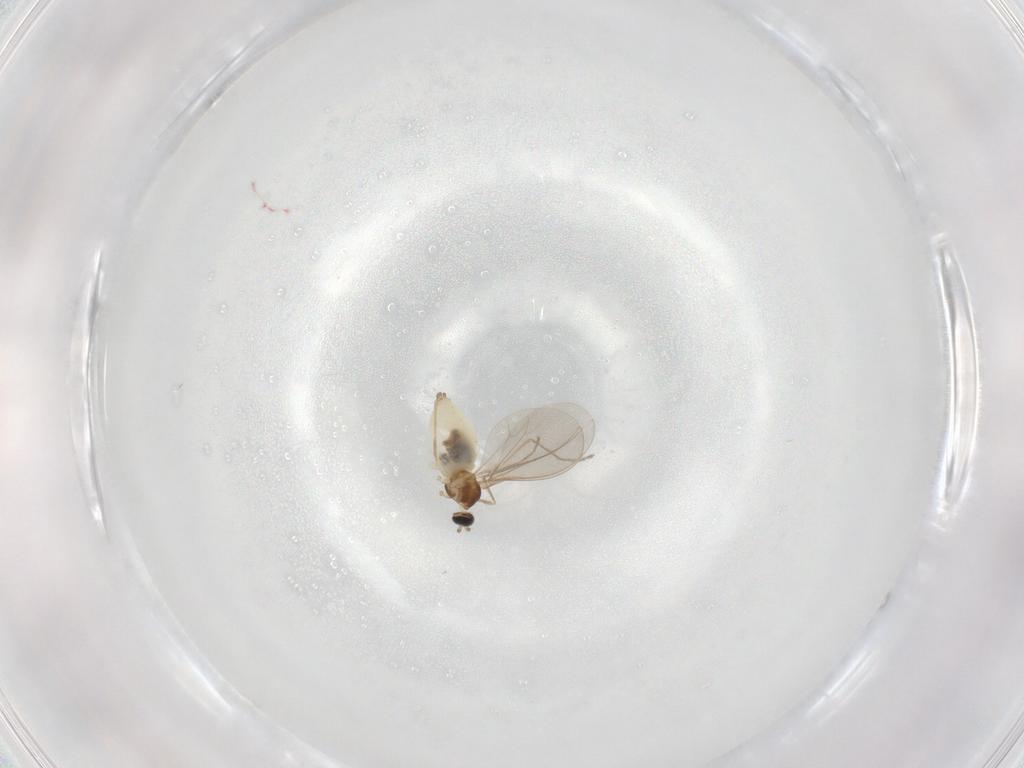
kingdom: Animalia
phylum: Arthropoda
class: Insecta
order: Diptera
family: Cecidomyiidae
